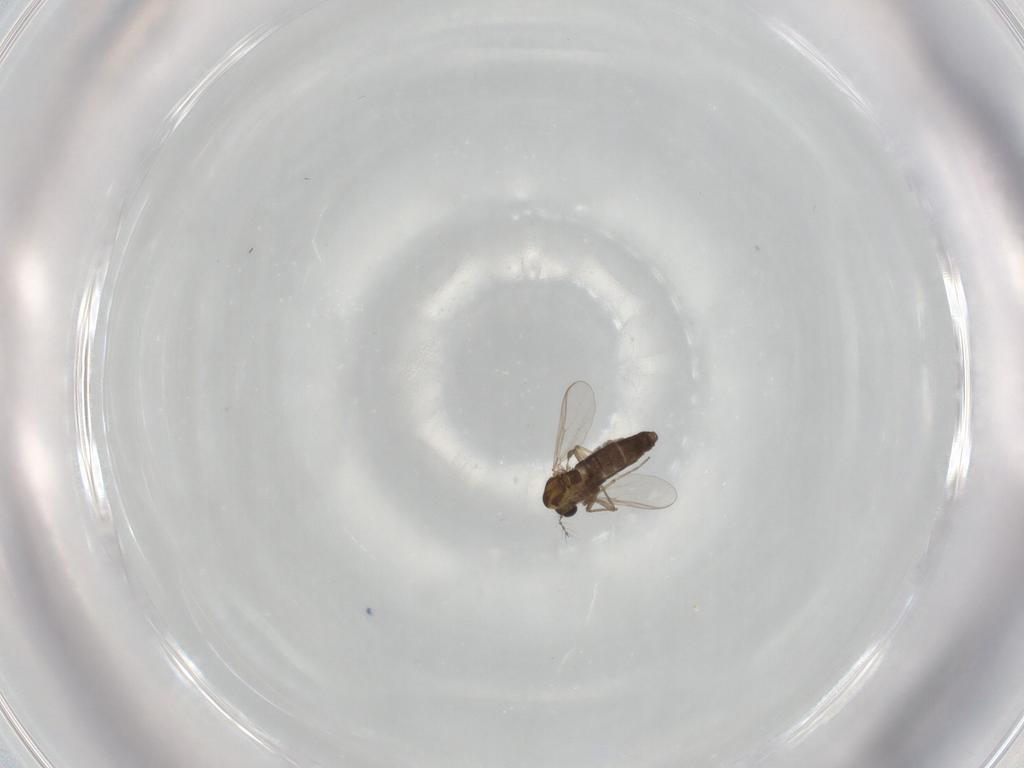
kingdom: Animalia
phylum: Arthropoda
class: Insecta
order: Diptera
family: Chironomidae
